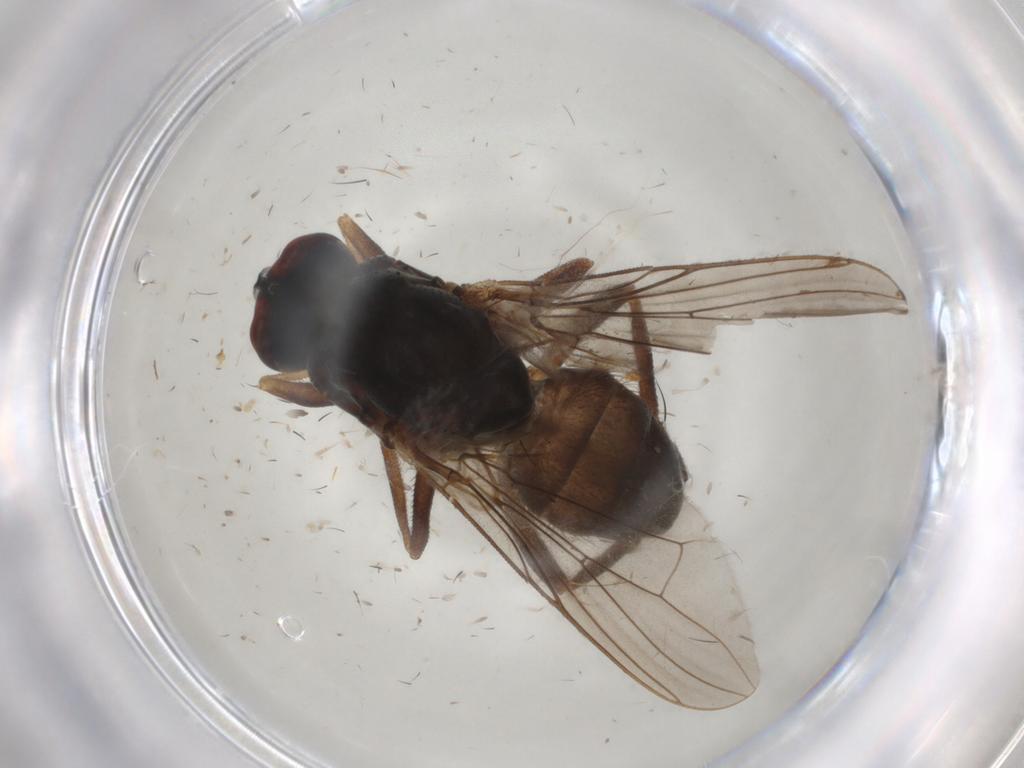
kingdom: Animalia
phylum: Arthropoda
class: Insecta
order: Diptera
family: Glossinidae
